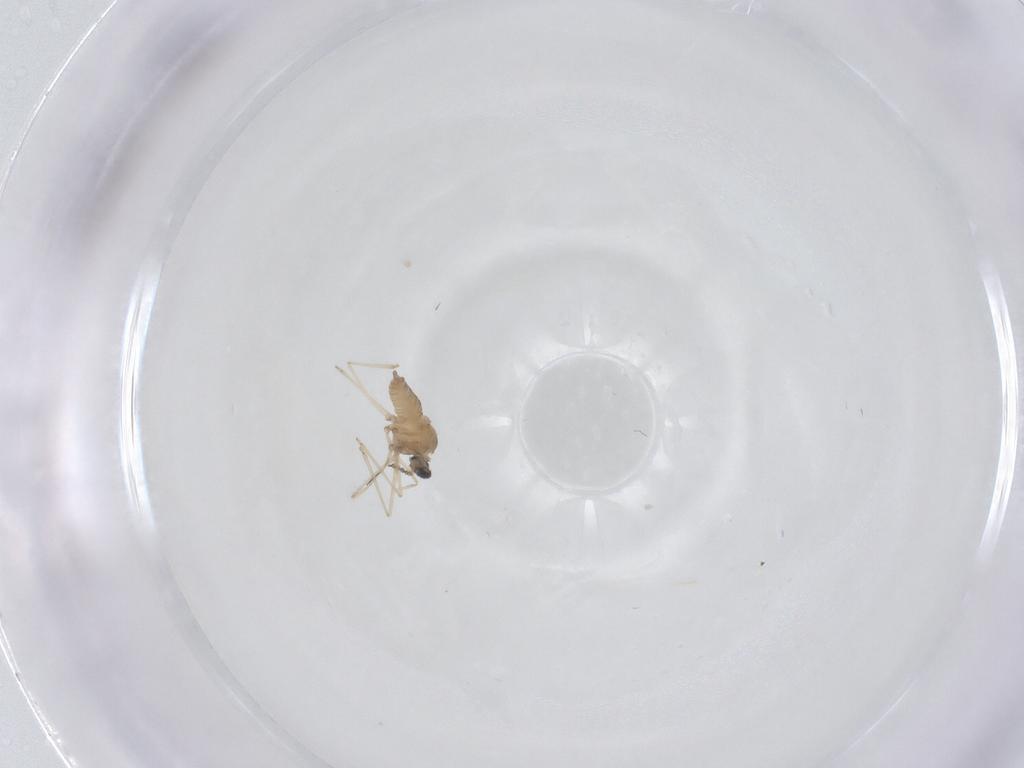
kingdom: Animalia
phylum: Arthropoda
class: Insecta
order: Diptera
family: Cecidomyiidae
